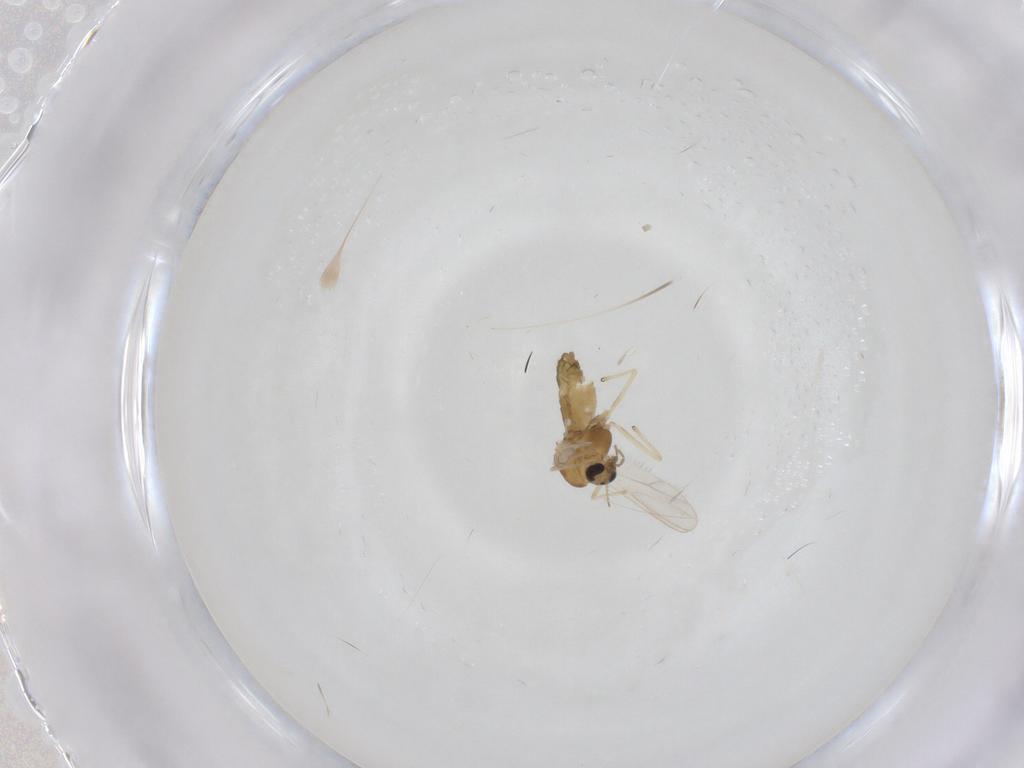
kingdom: Animalia
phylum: Arthropoda
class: Insecta
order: Diptera
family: Chironomidae
